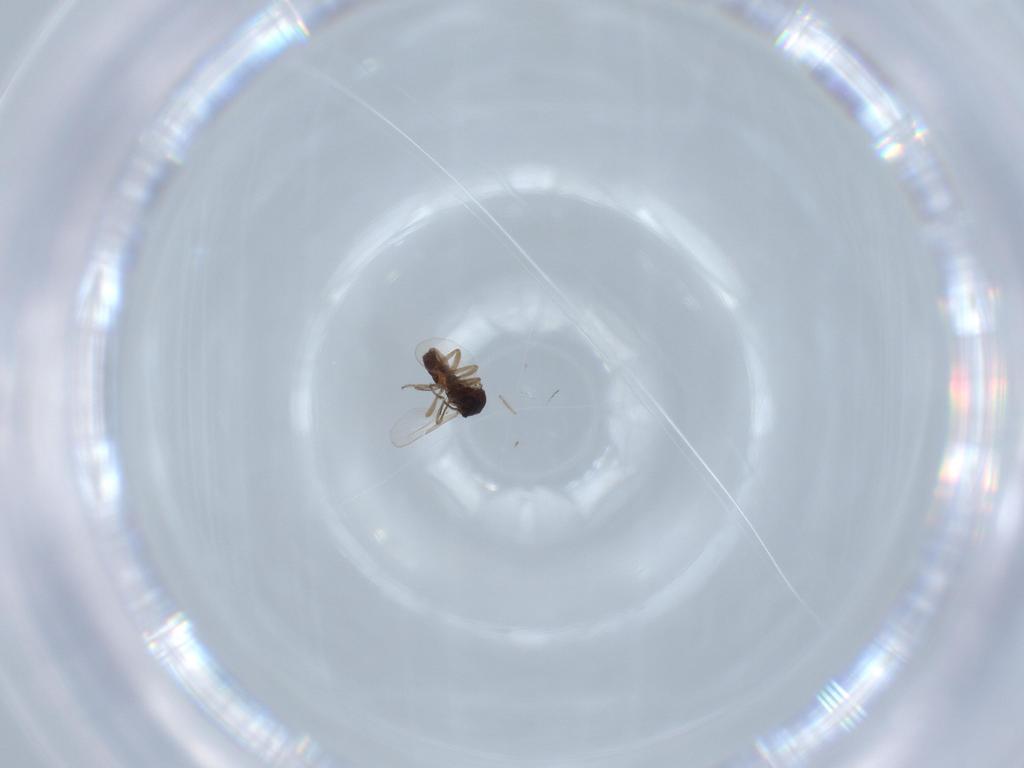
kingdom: Animalia
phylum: Arthropoda
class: Insecta
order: Diptera
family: Ceratopogonidae
